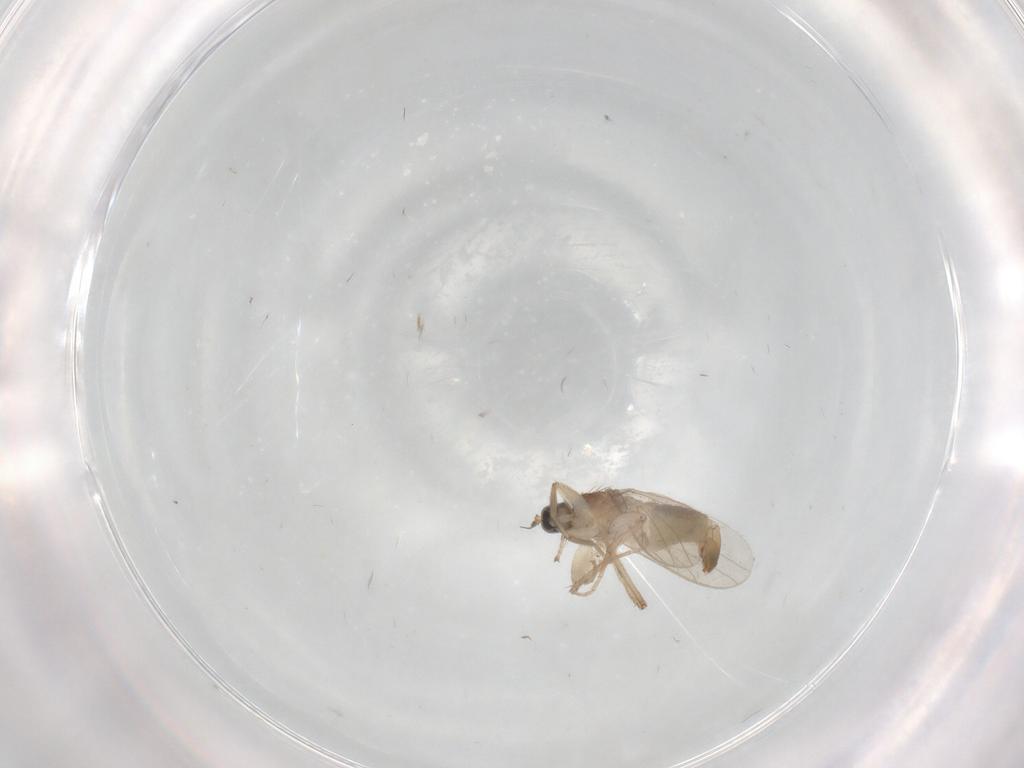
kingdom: Animalia
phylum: Arthropoda
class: Insecta
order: Diptera
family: Hybotidae
